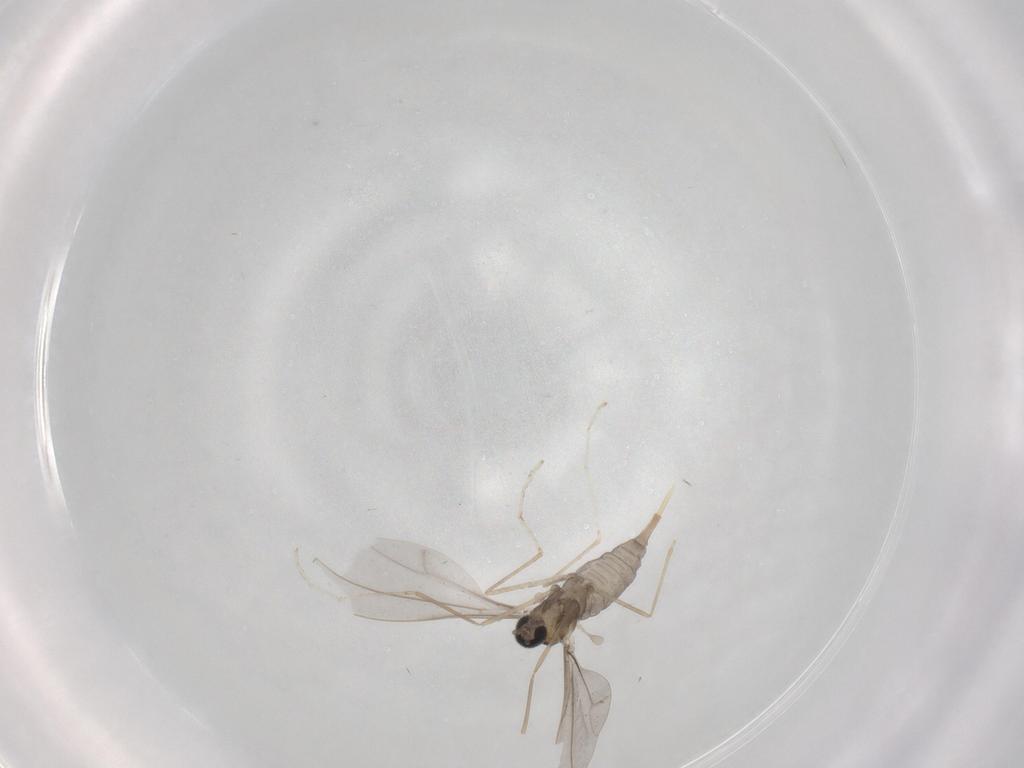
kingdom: Animalia
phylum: Arthropoda
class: Insecta
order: Diptera
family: Cecidomyiidae
